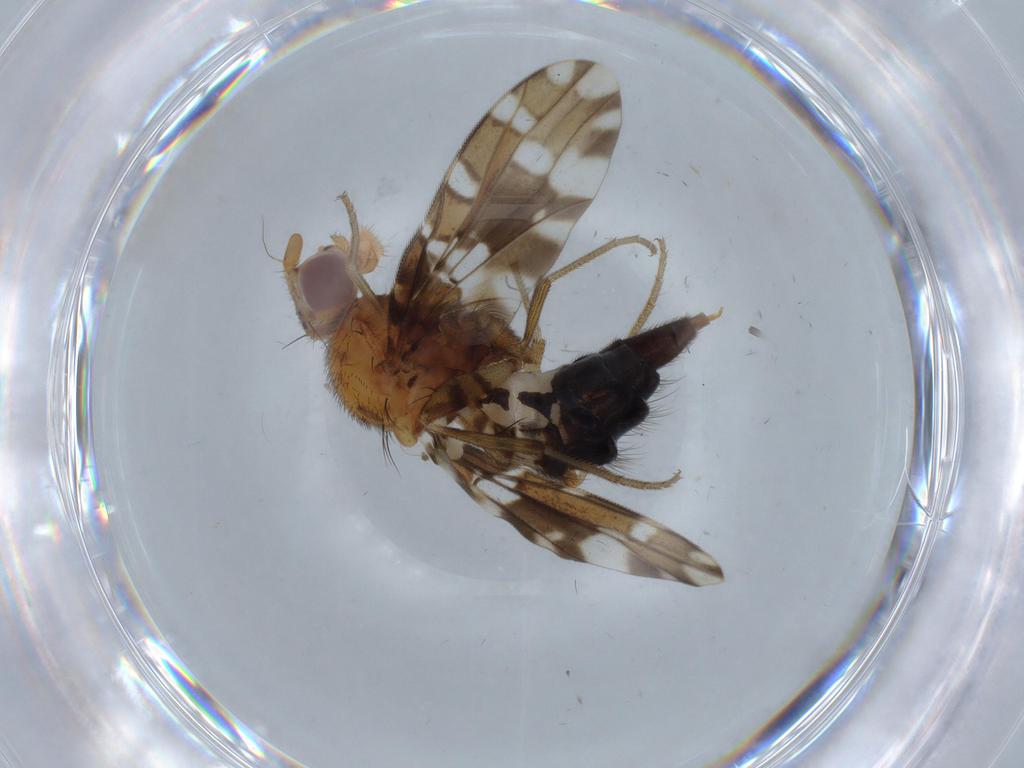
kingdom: Animalia
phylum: Arthropoda
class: Insecta
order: Diptera
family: Ulidiidae
